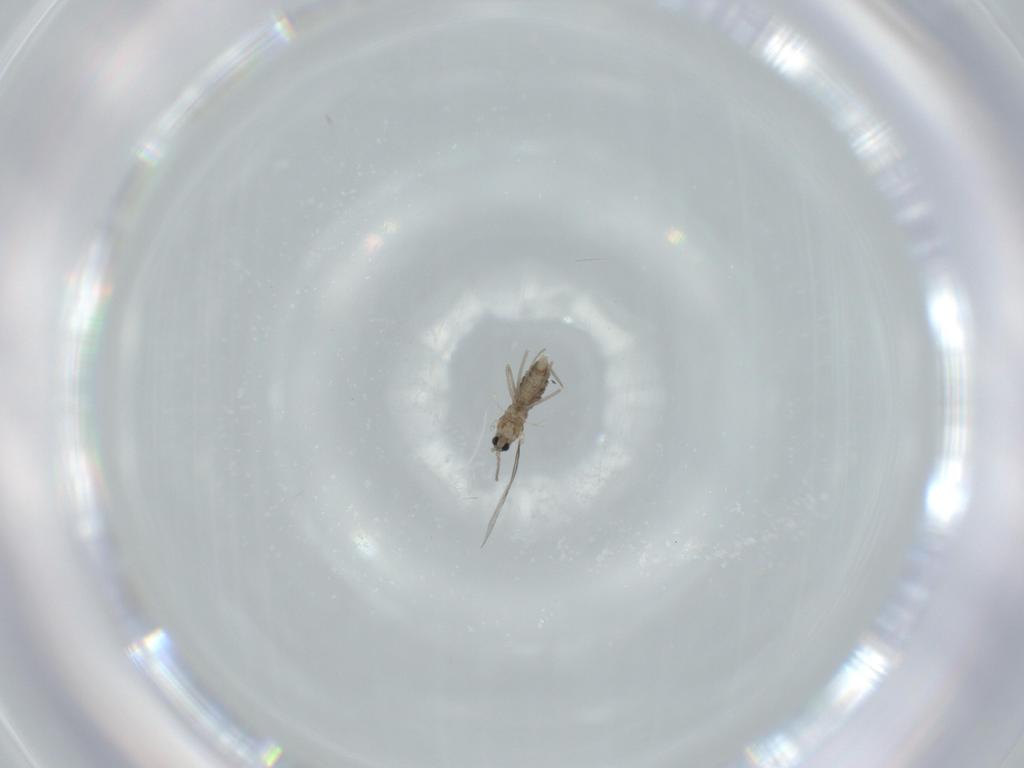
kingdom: Animalia
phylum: Arthropoda
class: Insecta
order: Diptera
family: Cecidomyiidae
